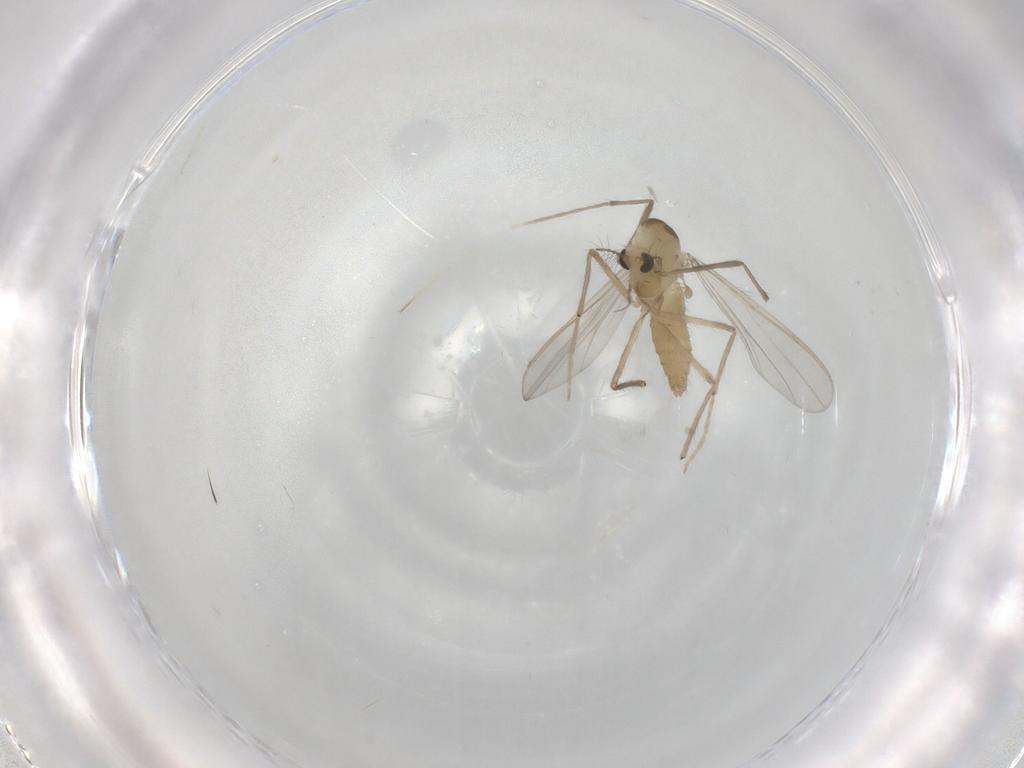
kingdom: Animalia
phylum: Arthropoda
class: Insecta
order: Diptera
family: Chironomidae
